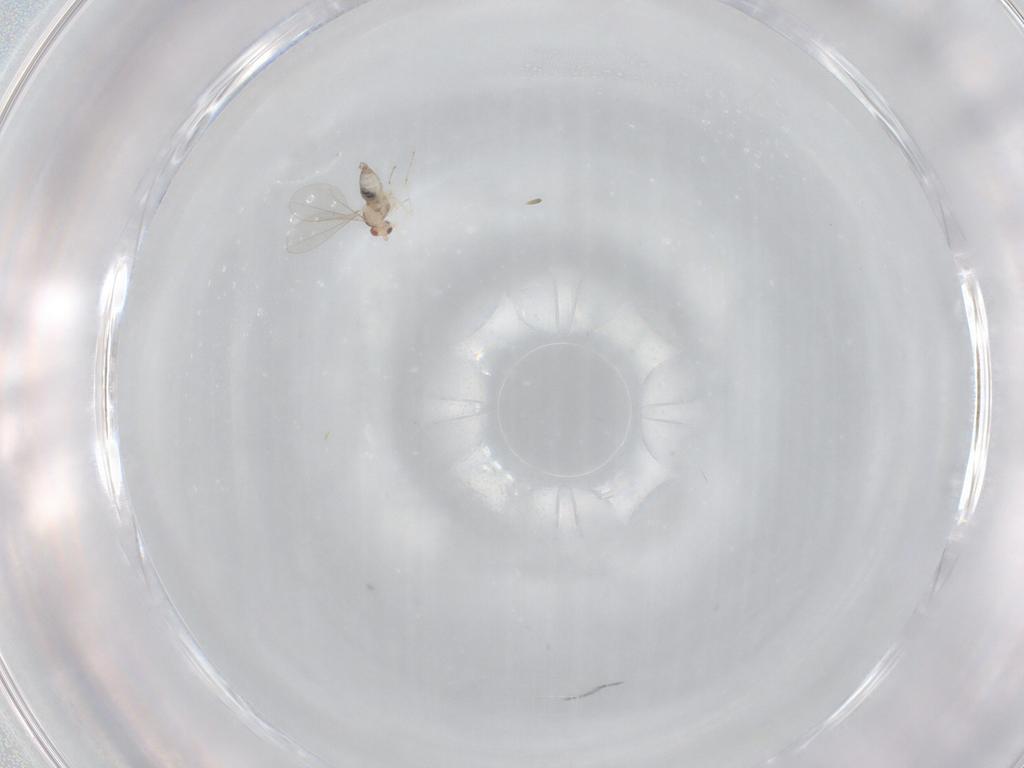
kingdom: Animalia
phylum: Arthropoda
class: Insecta
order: Diptera
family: Cecidomyiidae
